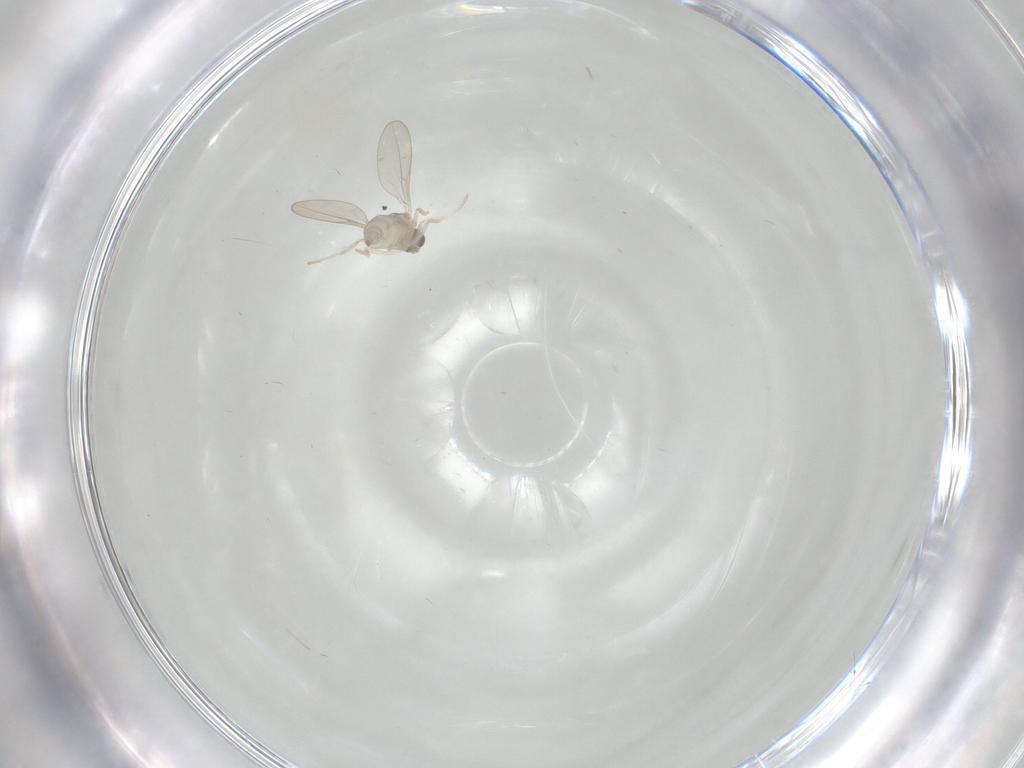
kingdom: Animalia
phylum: Arthropoda
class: Insecta
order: Diptera
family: Cecidomyiidae
